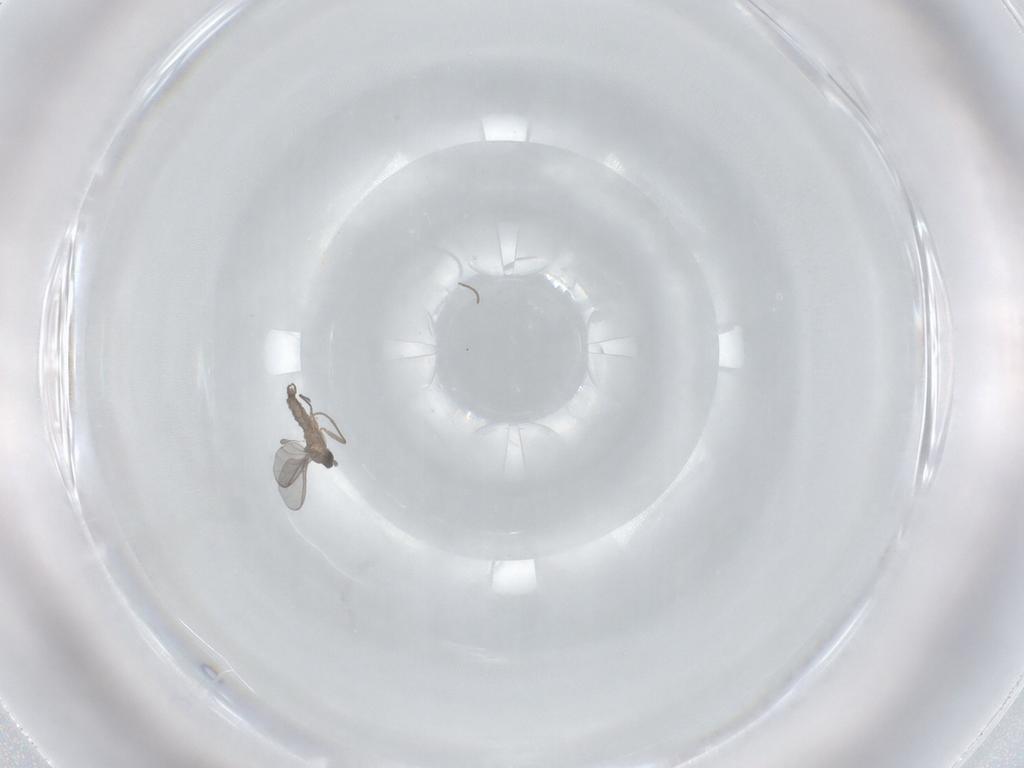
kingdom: Animalia
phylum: Arthropoda
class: Insecta
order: Diptera
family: Sciaridae
